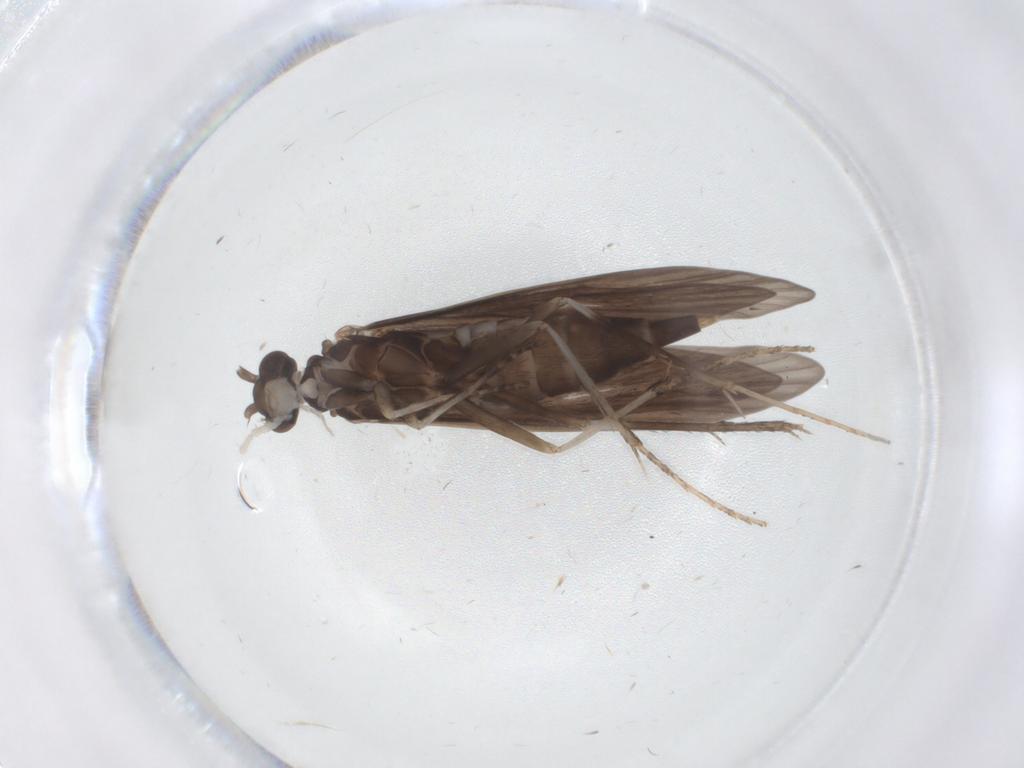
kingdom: Animalia
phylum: Arthropoda
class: Insecta
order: Trichoptera
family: Xiphocentronidae
